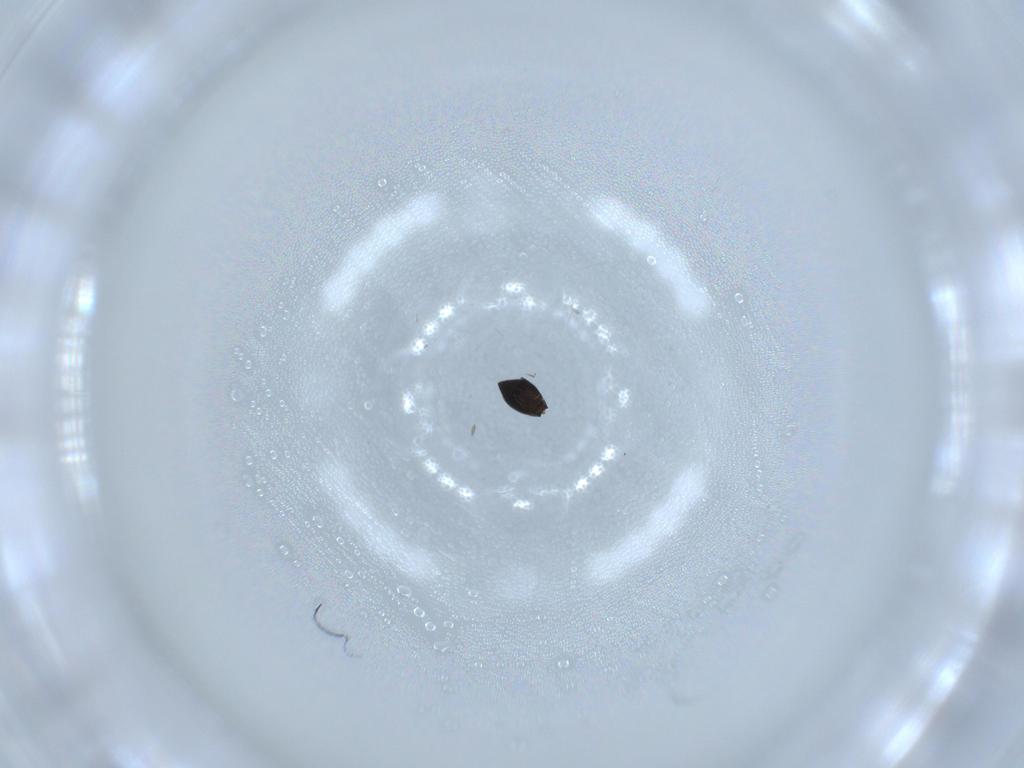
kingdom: Animalia
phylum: Arthropoda
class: Insecta
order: Hymenoptera
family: Scelionidae
